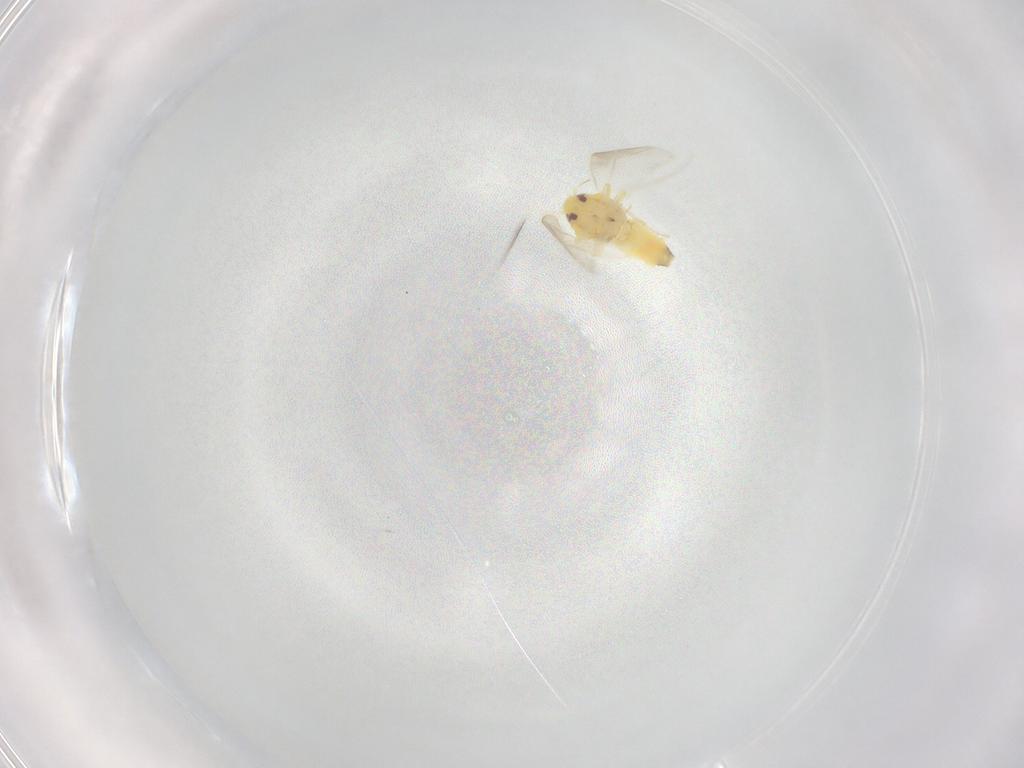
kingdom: Animalia
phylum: Arthropoda
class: Insecta
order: Hemiptera
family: Aleyrodidae
